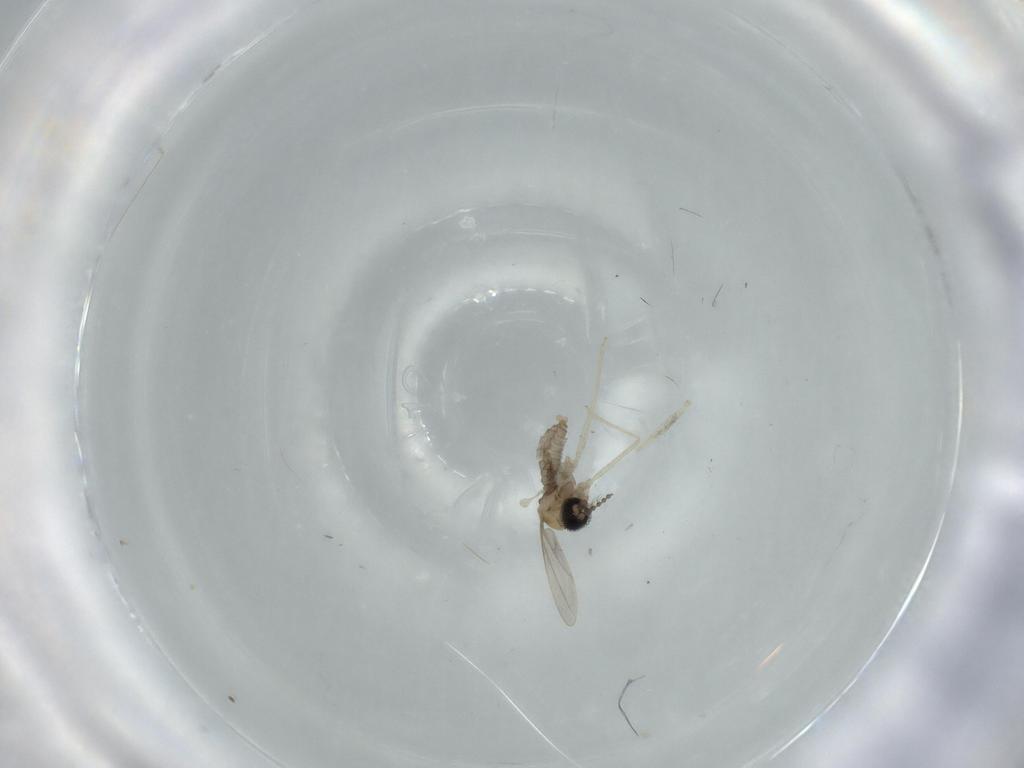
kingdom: Animalia
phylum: Arthropoda
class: Insecta
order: Diptera
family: Cecidomyiidae
